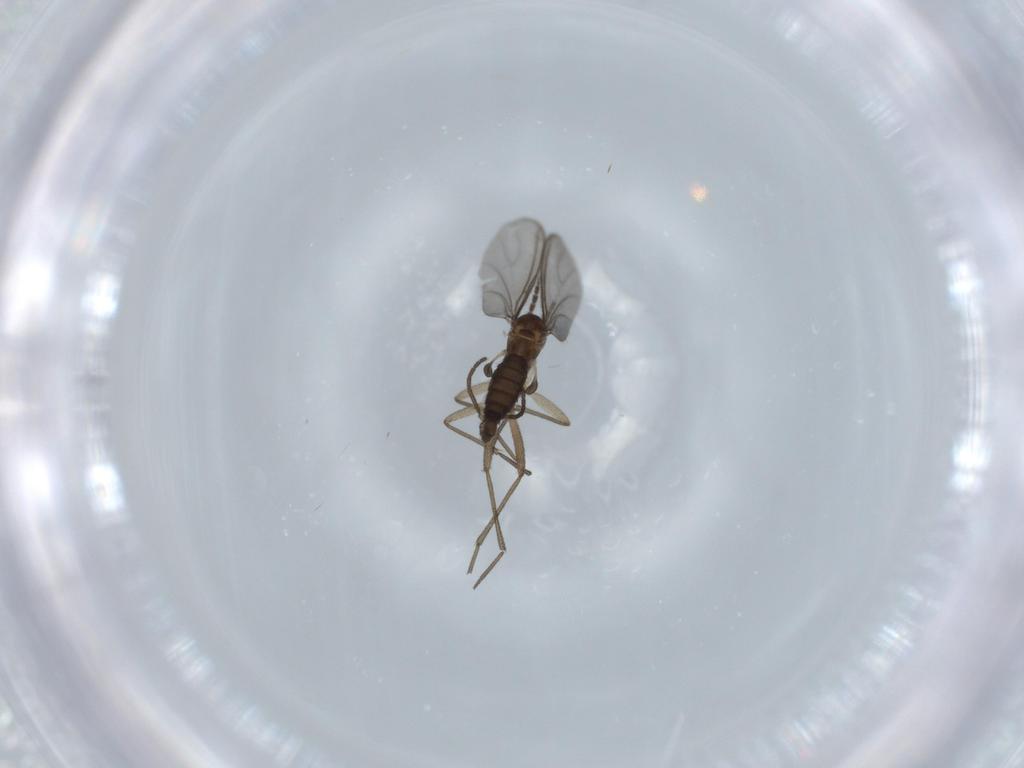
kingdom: Animalia
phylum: Arthropoda
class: Insecta
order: Diptera
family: Sciaridae
